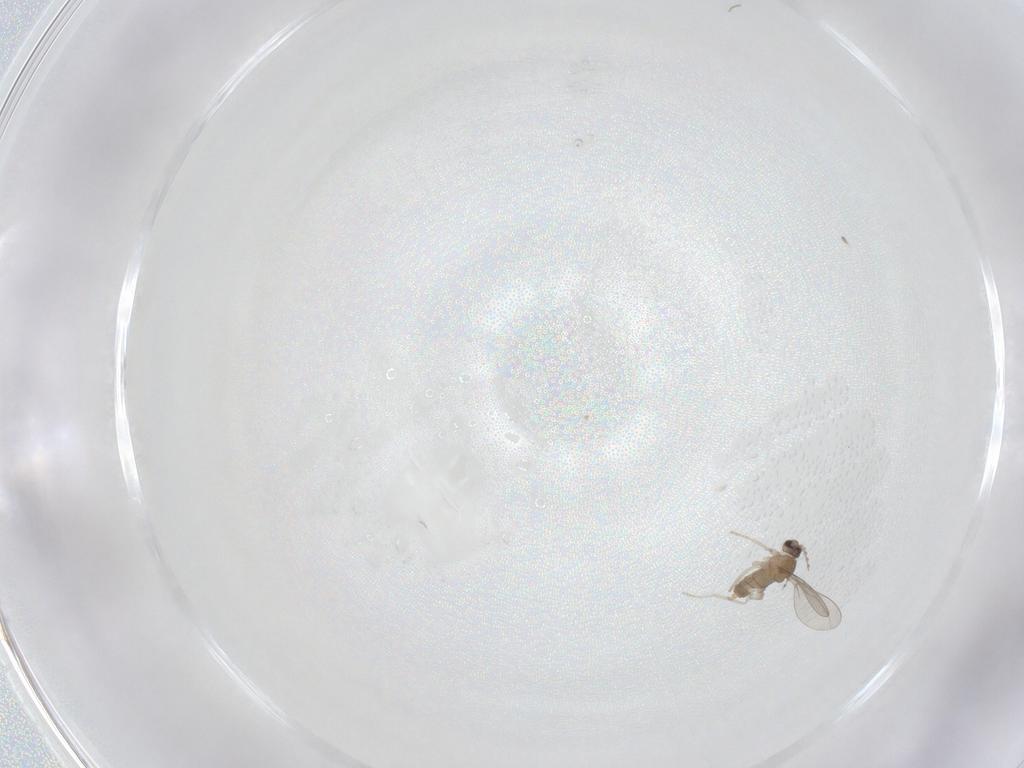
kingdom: Animalia
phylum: Arthropoda
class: Insecta
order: Diptera
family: Cecidomyiidae
